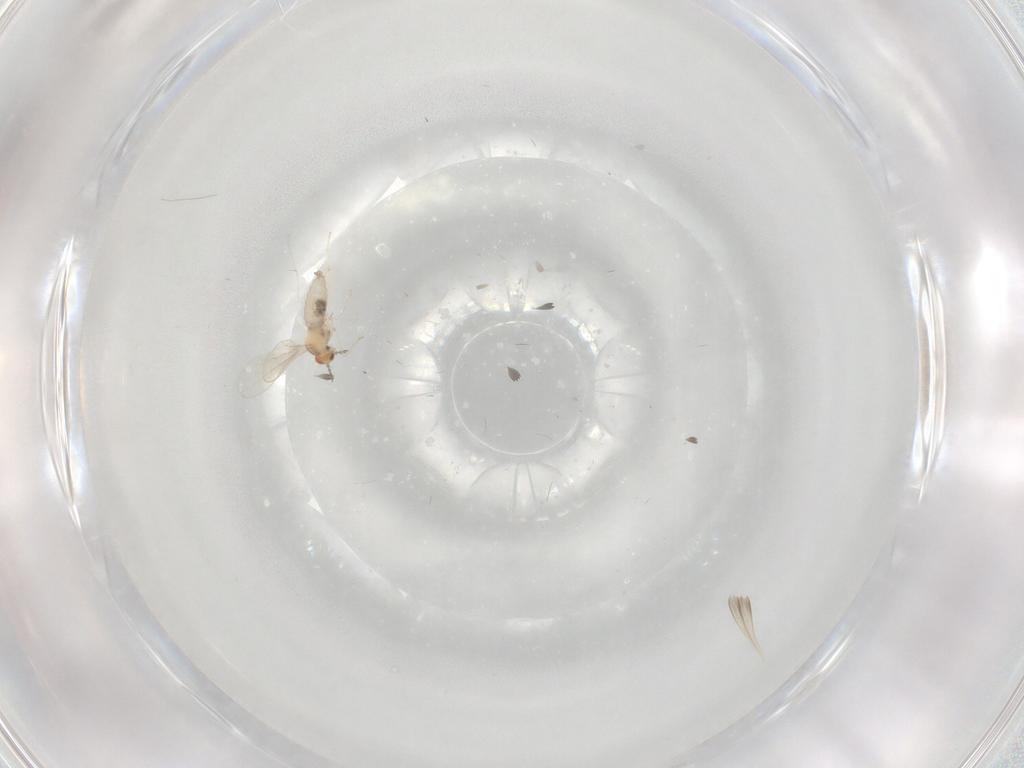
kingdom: Animalia
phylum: Arthropoda
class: Insecta
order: Diptera
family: Cecidomyiidae
